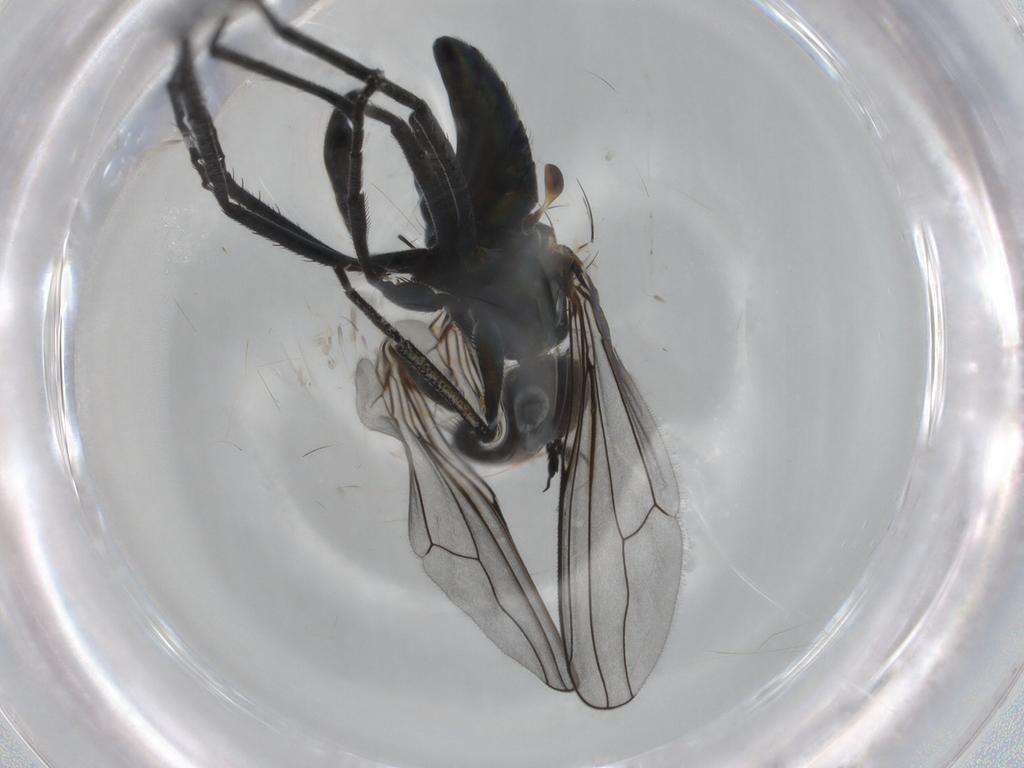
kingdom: Animalia
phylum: Arthropoda
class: Insecta
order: Diptera
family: Dolichopodidae
